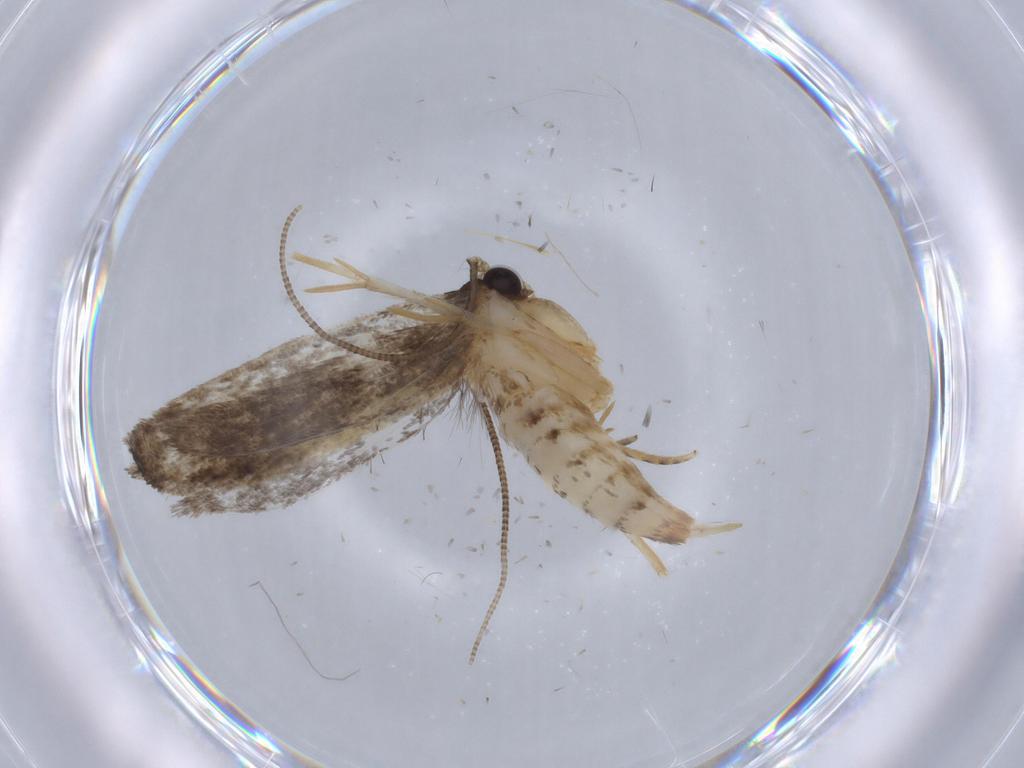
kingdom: Animalia
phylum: Arthropoda
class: Insecta
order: Lepidoptera
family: Tineidae
